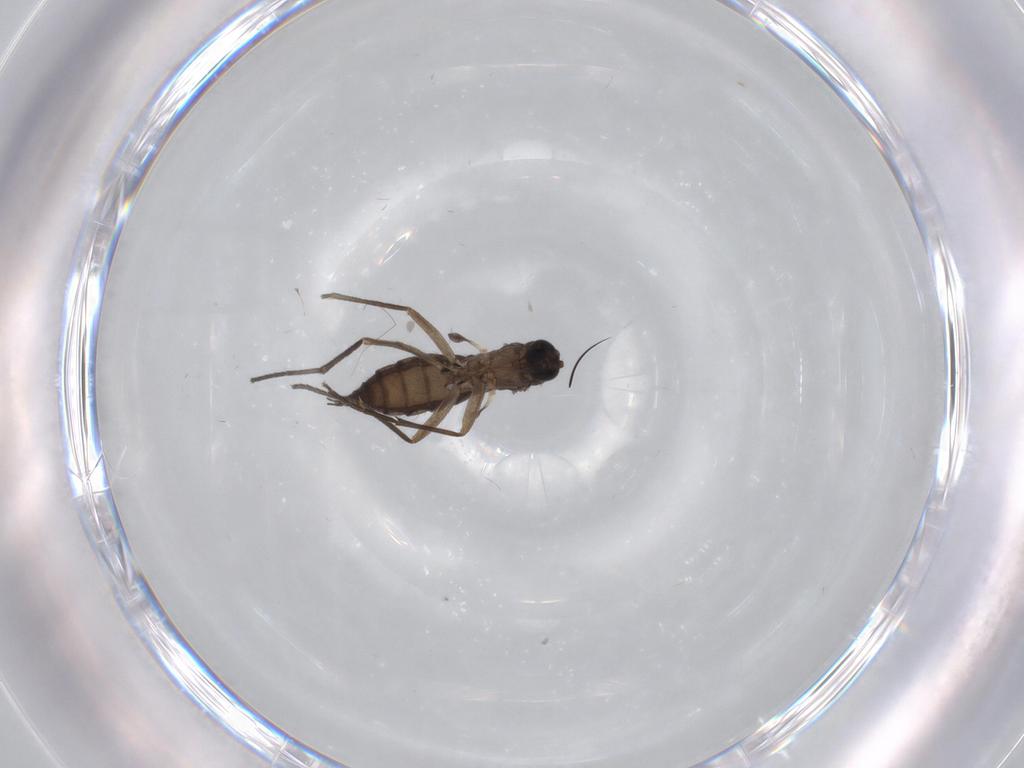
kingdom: Animalia
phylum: Arthropoda
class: Insecta
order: Diptera
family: Sciaridae
